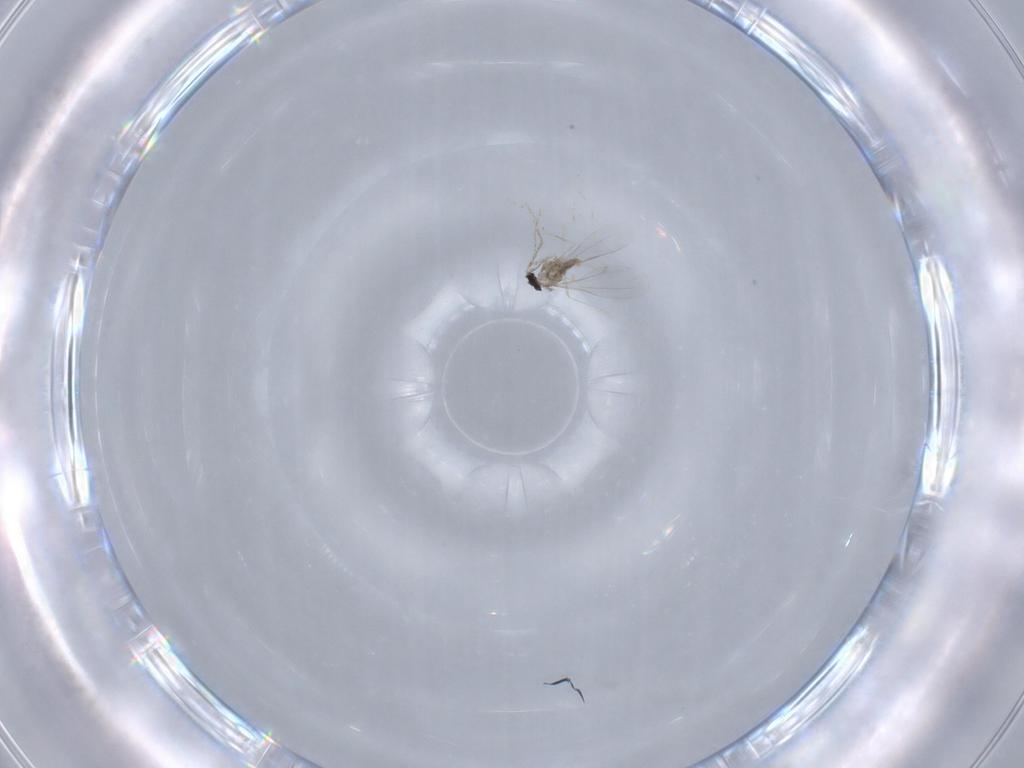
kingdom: Animalia
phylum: Arthropoda
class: Insecta
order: Diptera
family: Cecidomyiidae
